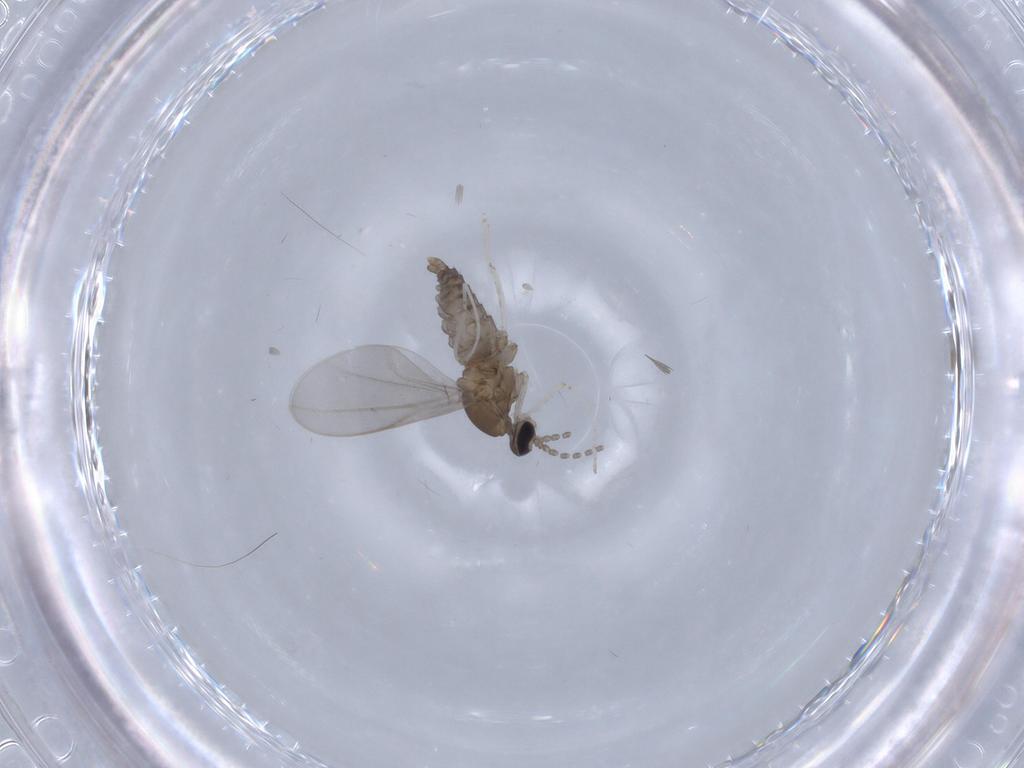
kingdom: Animalia
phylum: Arthropoda
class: Insecta
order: Diptera
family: Cecidomyiidae
